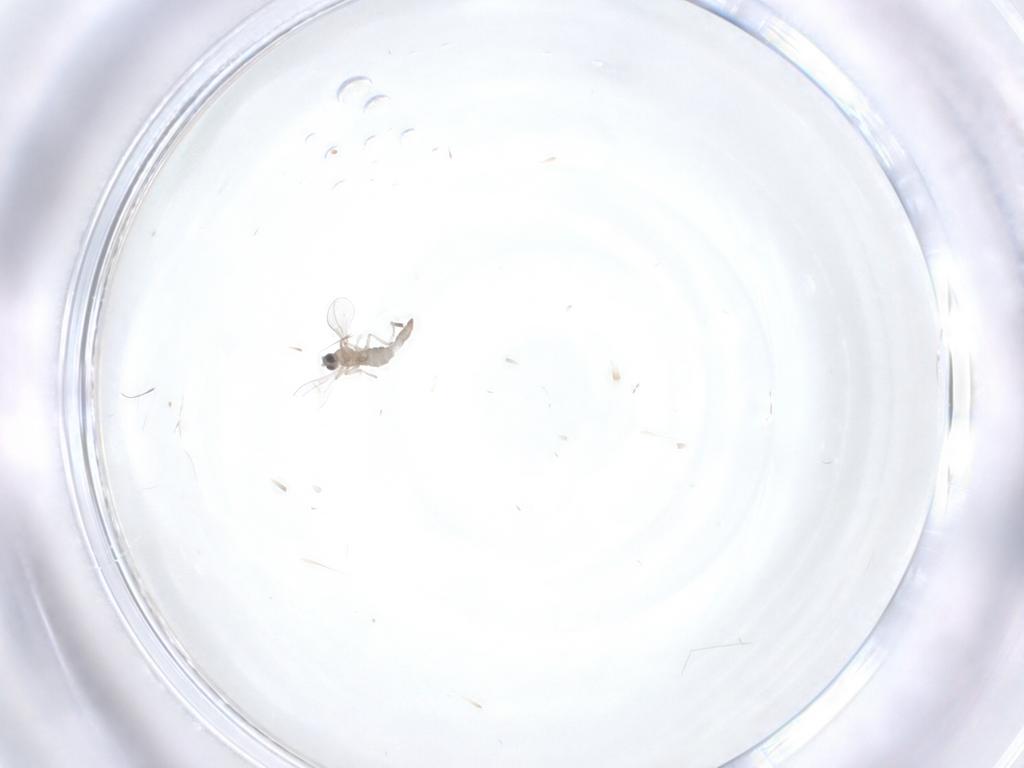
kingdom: Animalia
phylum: Arthropoda
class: Insecta
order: Diptera
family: Cecidomyiidae
